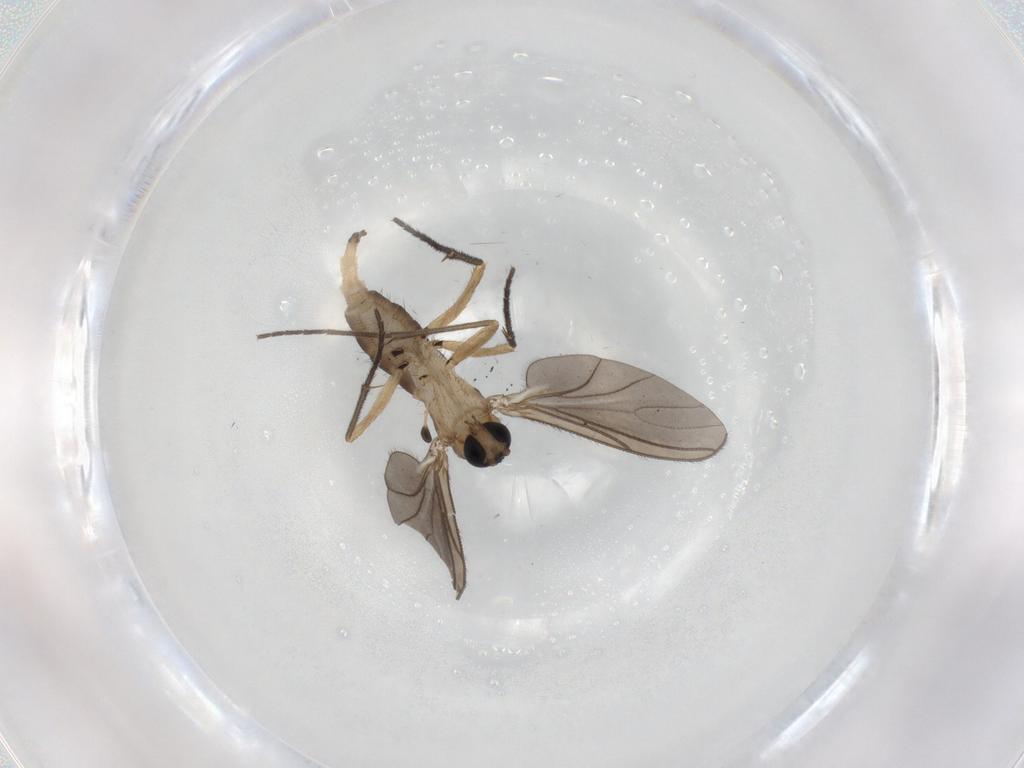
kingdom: Animalia
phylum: Arthropoda
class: Insecta
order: Diptera
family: Sciaridae
